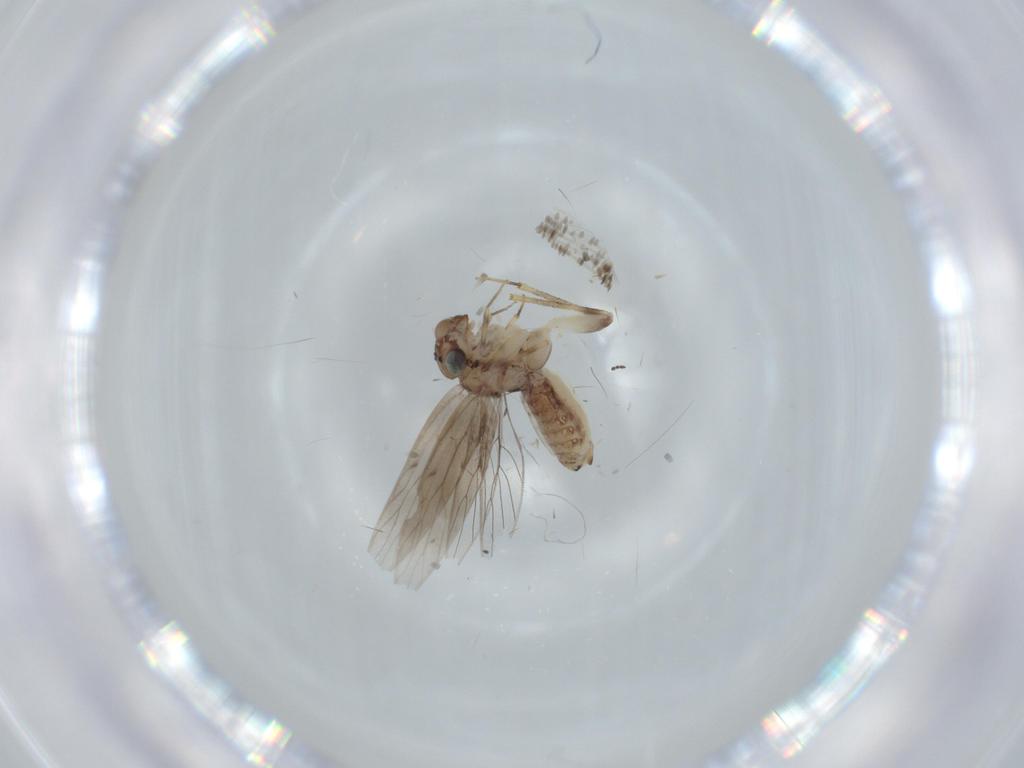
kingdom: Animalia
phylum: Arthropoda
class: Insecta
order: Psocodea
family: Lepidopsocidae
